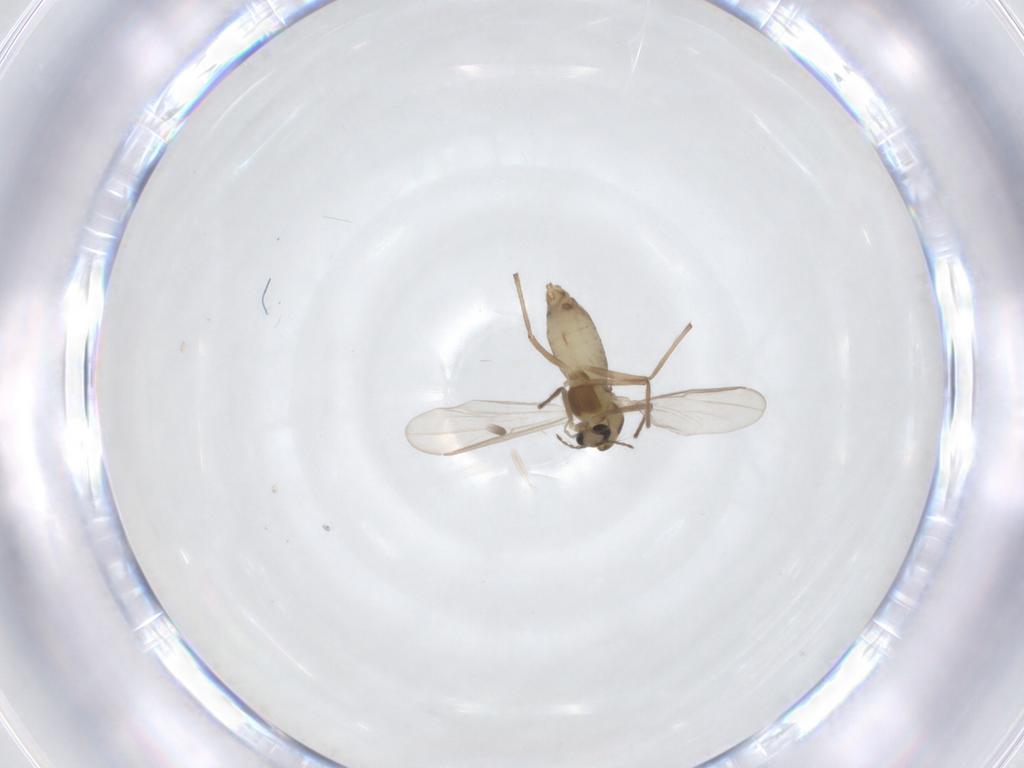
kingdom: Animalia
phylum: Arthropoda
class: Insecta
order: Diptera
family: Chironomidae
